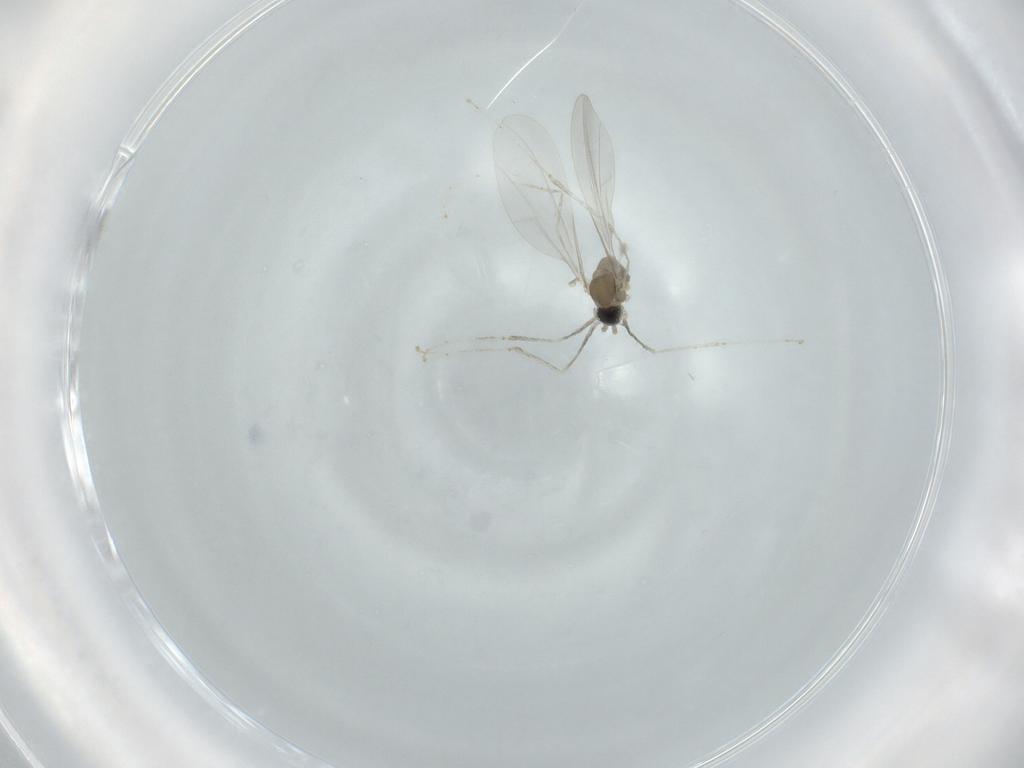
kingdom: Animalia
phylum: Arthropoda
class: Insecta
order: Diptera
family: Cecidomyiidae
